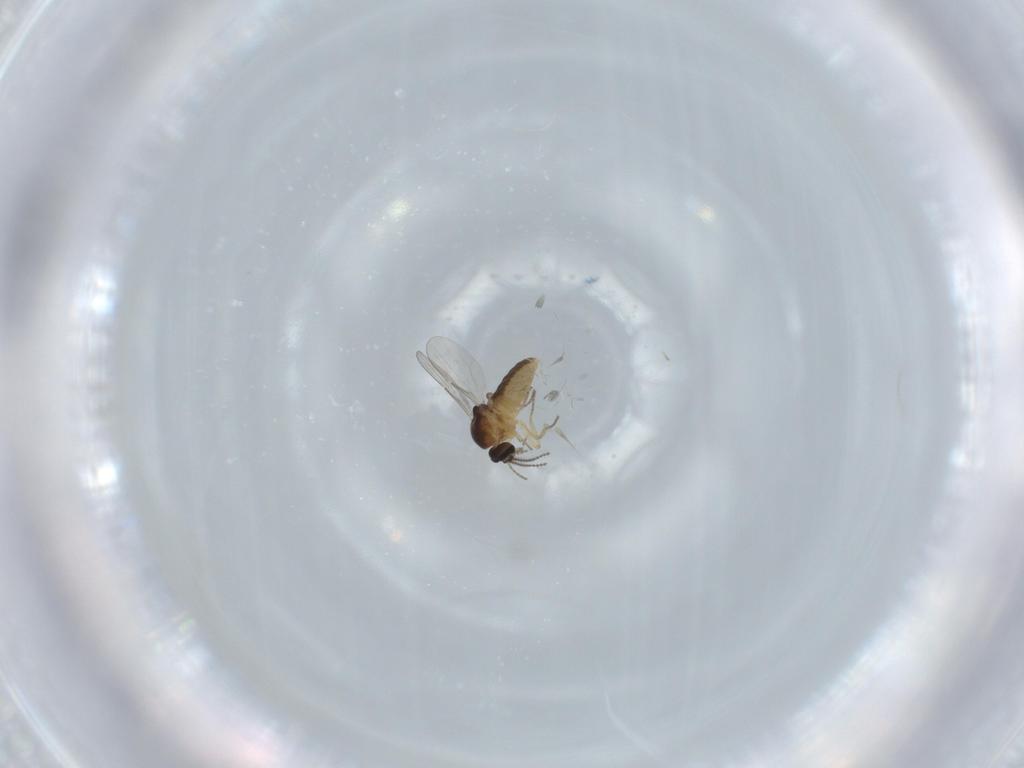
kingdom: Animalia
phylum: Arthropoda
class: Insecta
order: Diptera
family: Ceratopogonidae
